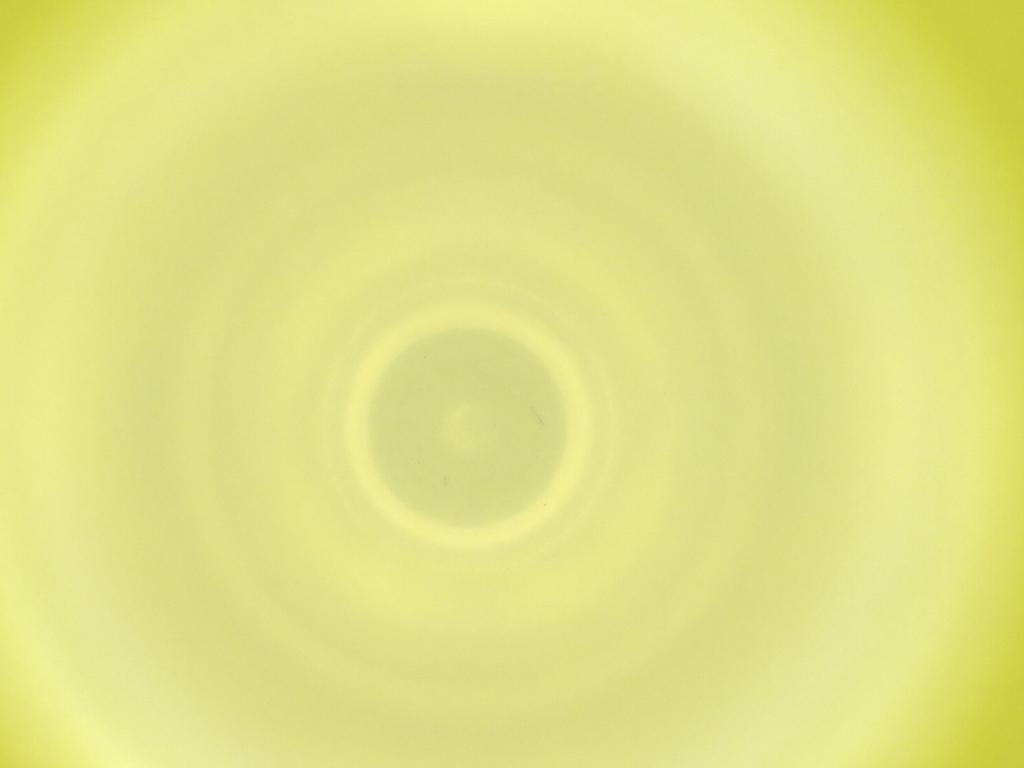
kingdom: Animalia
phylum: Arthropoda
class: Insecta
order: Diptera
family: Cecidomyiidae
